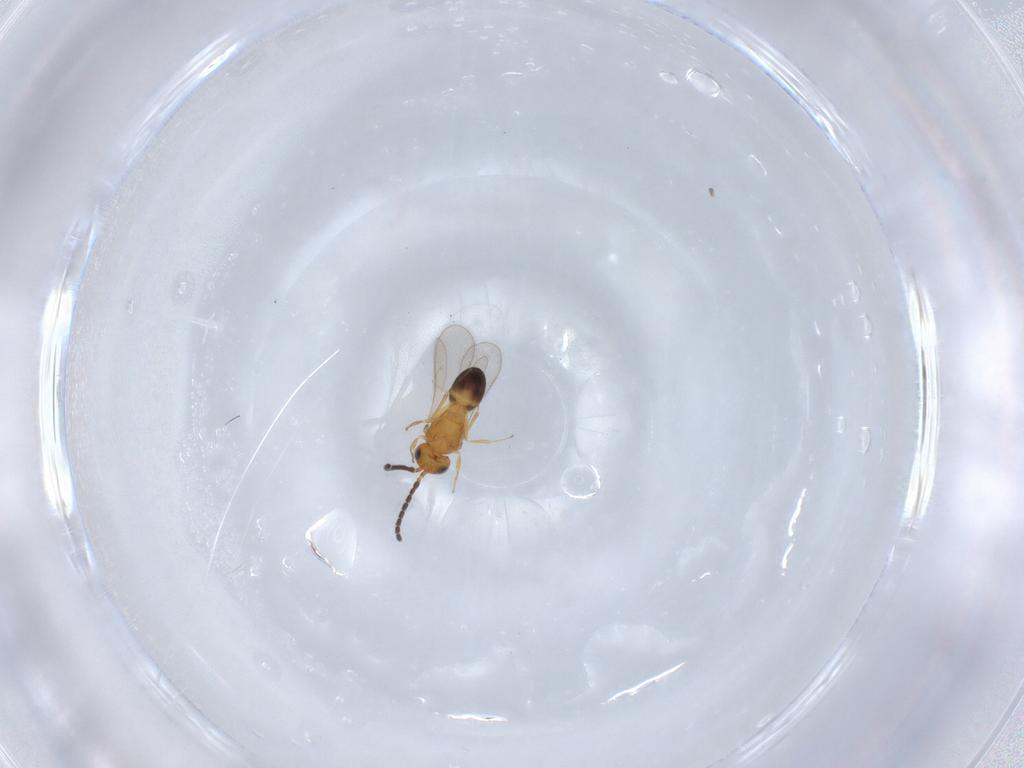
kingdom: Animalia
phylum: Arthropoda
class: Insecta
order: Hymenoptera
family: Scelionidae
